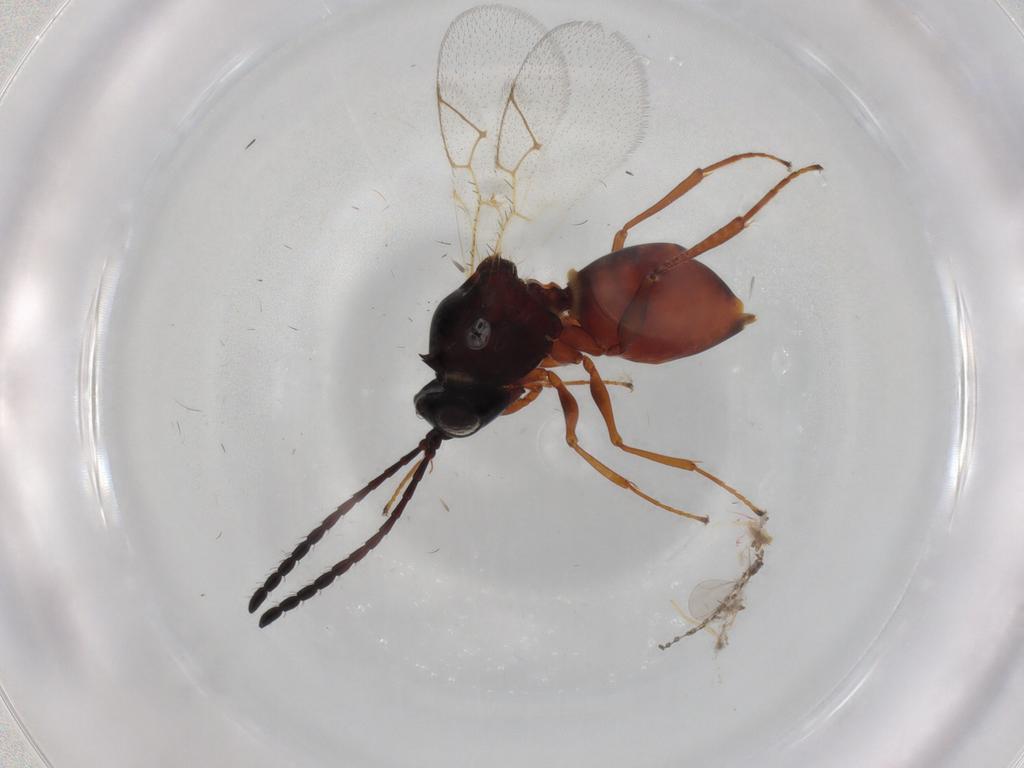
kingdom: Animalia
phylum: Arthropoda
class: Insecta
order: Hymenoptera
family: Figitidae
